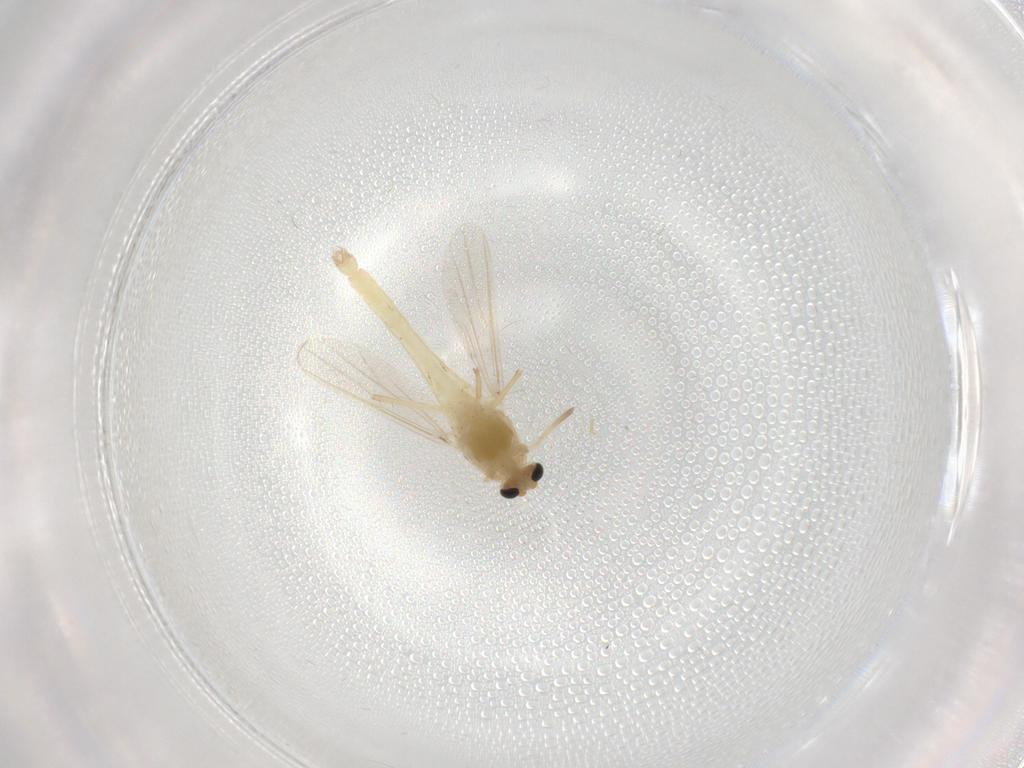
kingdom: Animalia
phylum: Arthropoda
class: Insecta
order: Diptera
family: Chironomidae
